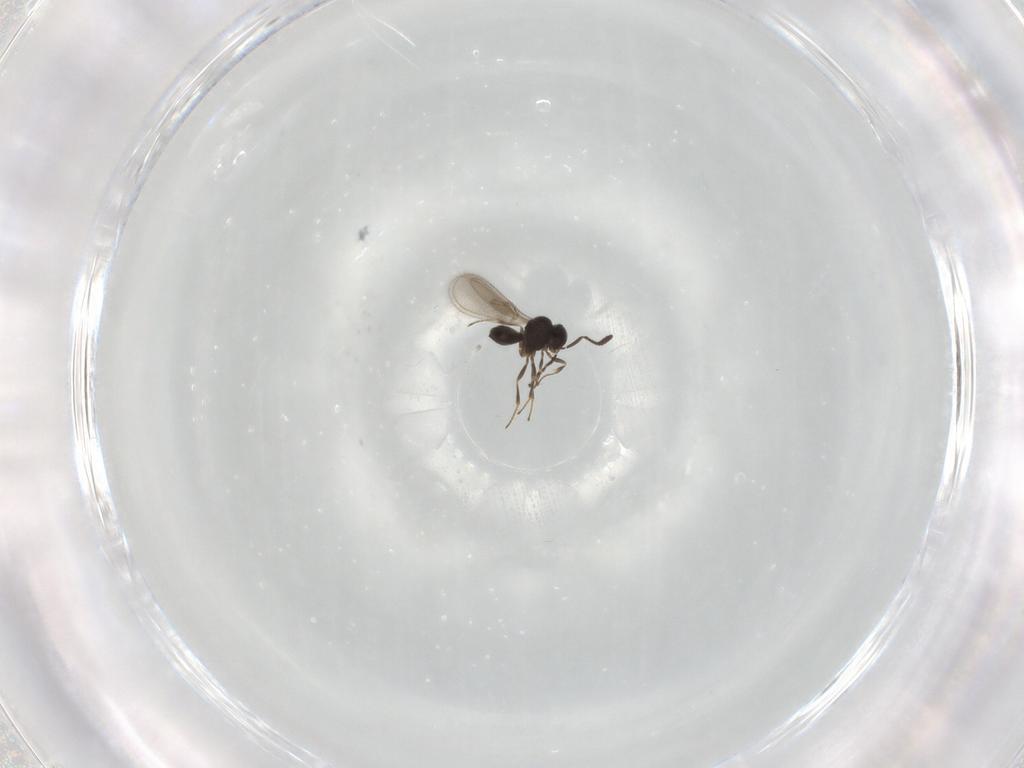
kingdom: Animalia
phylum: Arthropoda
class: Insecta
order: Hymenoptera
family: Scelionidae
